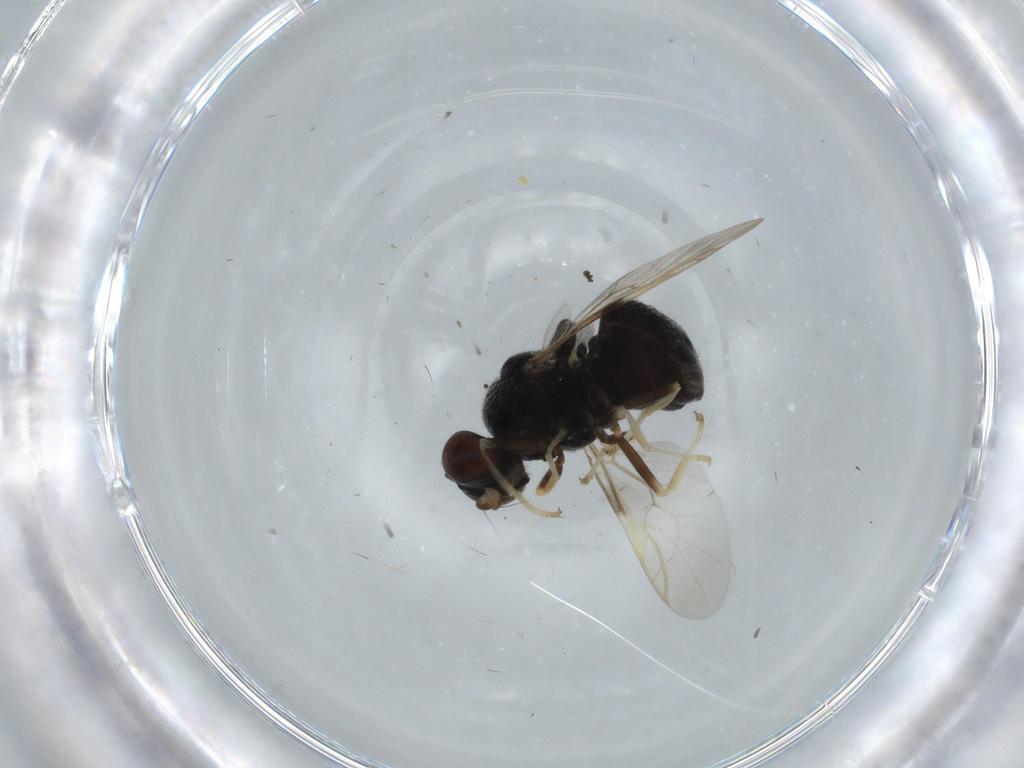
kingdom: Animalia
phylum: Arthropoda
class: Insecta
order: Diptera
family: Stratiomyidae
